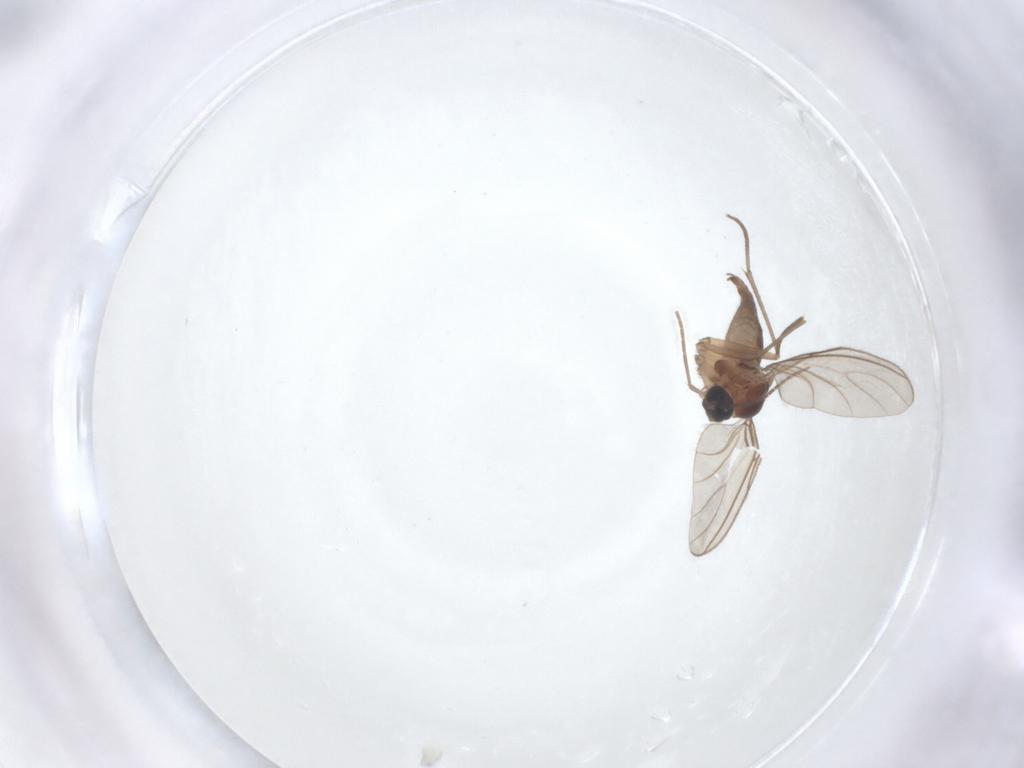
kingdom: Animalia
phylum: Arthropoda
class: Insecta
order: Diptera
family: Sciaridae
